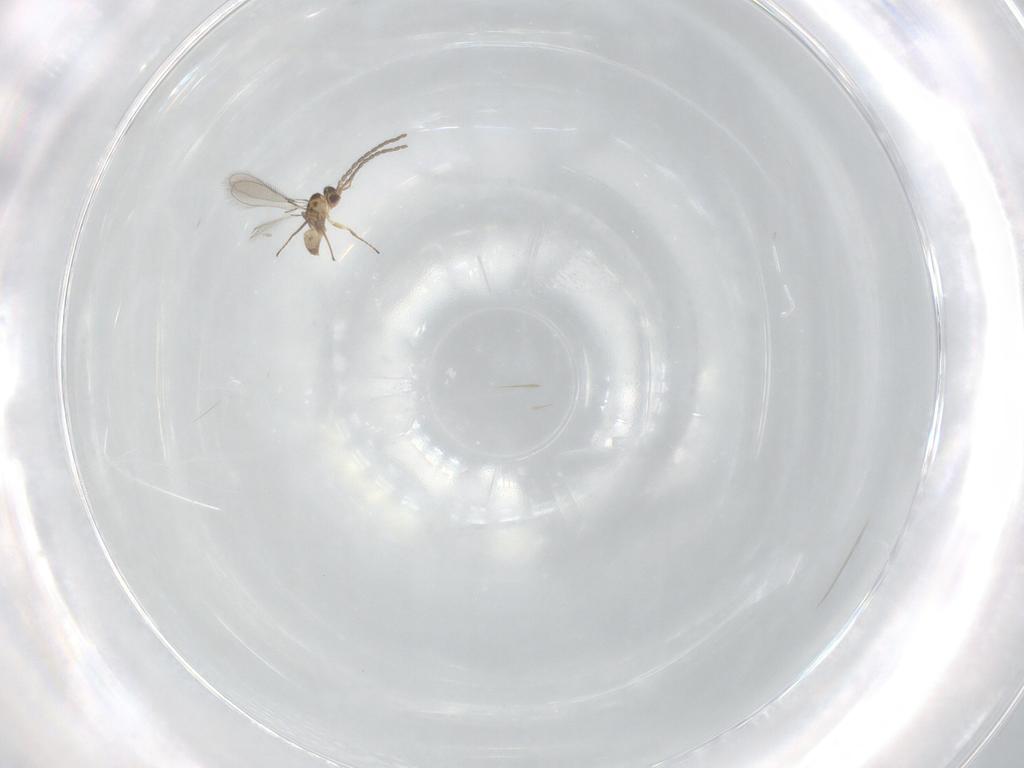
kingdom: Animalia
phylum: Arthropoda
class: Insecta
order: Hymenoptera
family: Mymaridae
